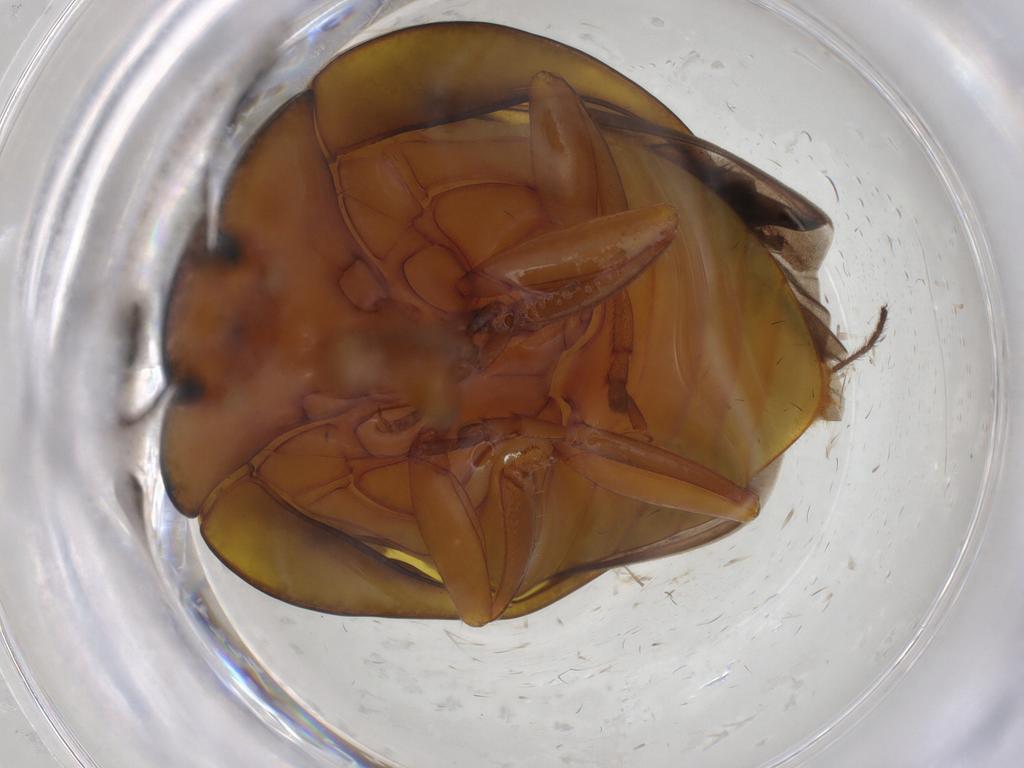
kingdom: Animalia
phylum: Arthropoda
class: Insecta
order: Coleoptera
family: Erotylidae
